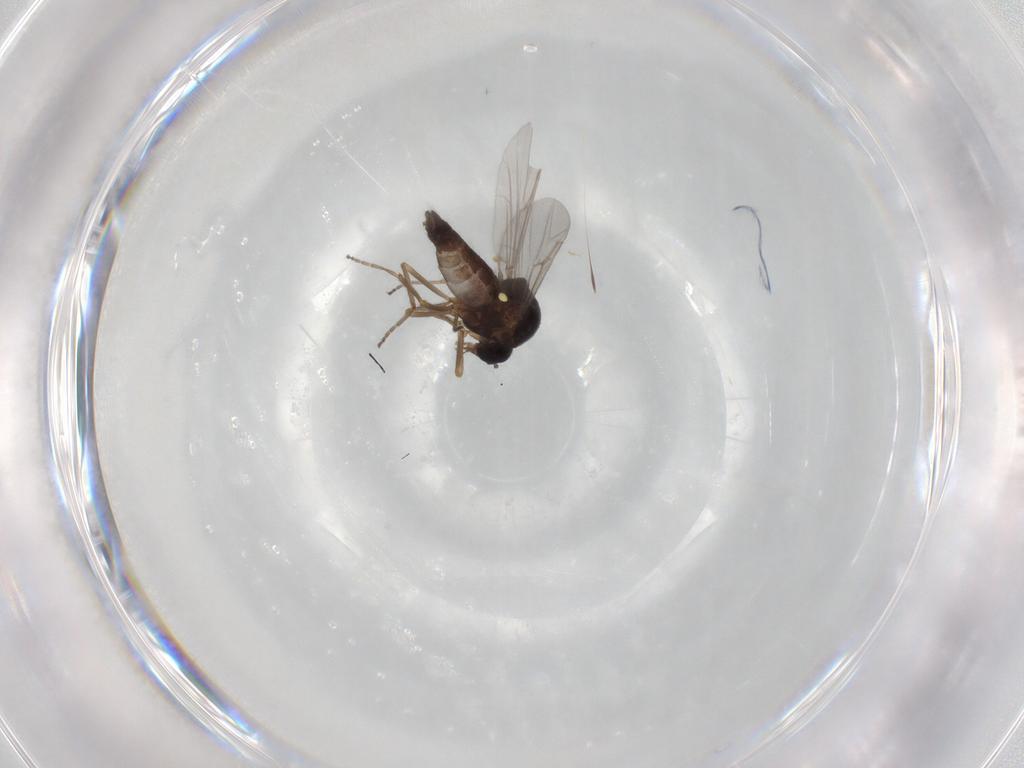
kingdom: Animalia
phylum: Arthropoda
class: Insecta
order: Diptera
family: Ceratopogonidae
